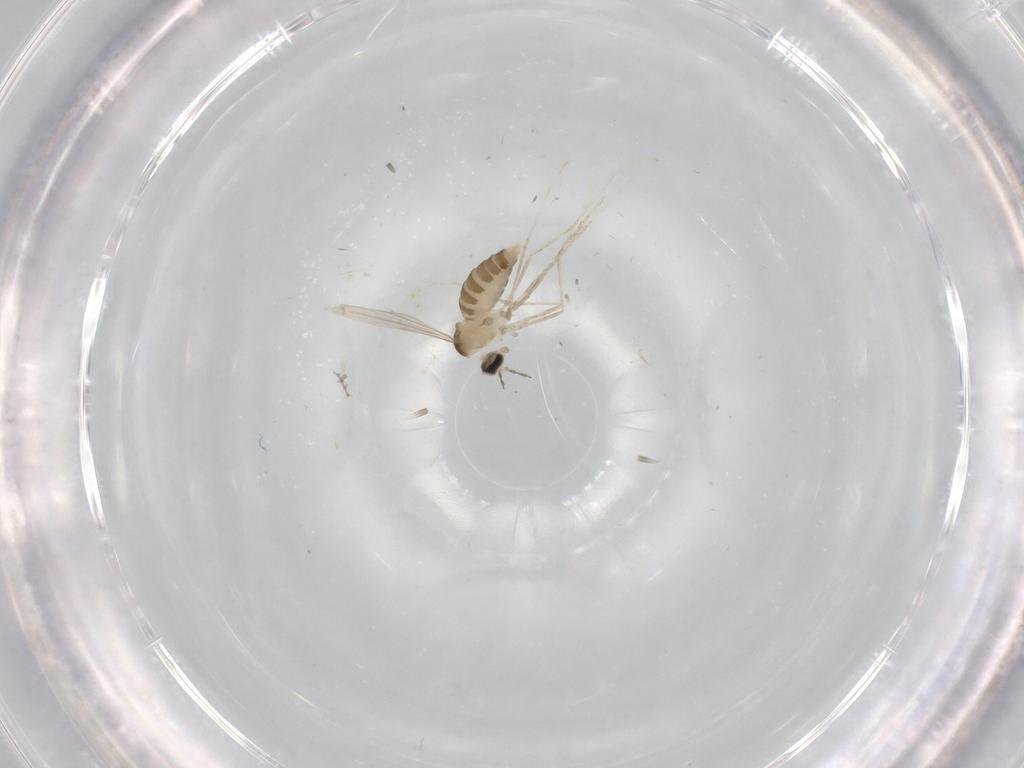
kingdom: Animalia
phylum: Arthropoda
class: Insecta
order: Diptera
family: Cecidomyiidae
